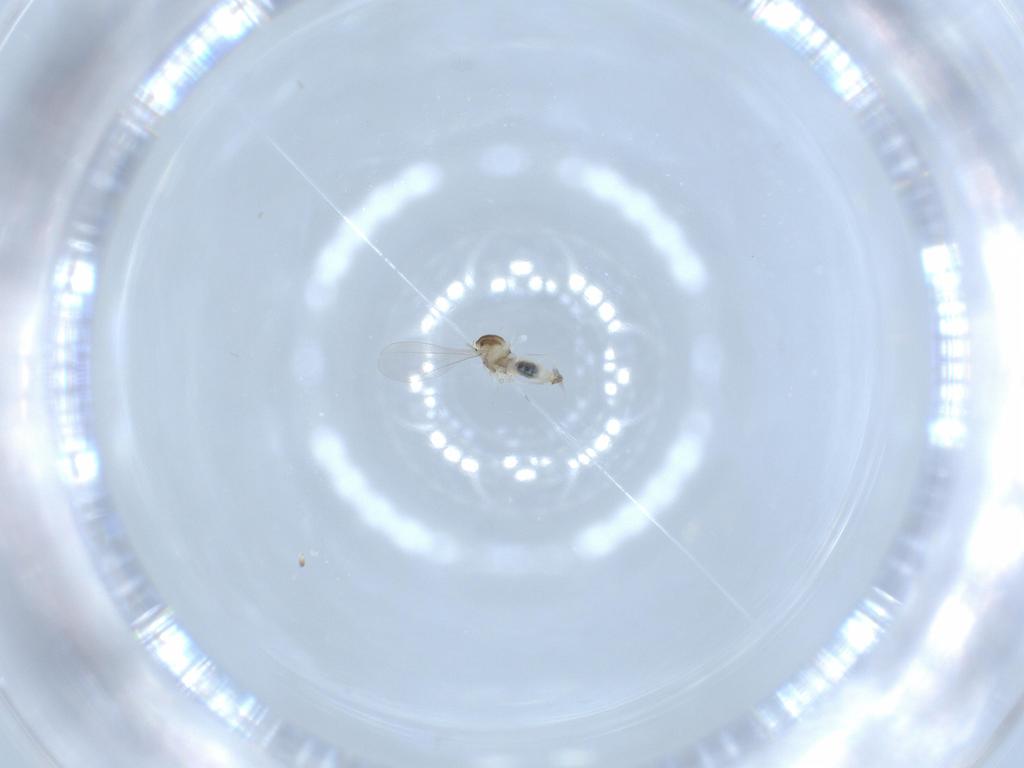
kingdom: Animalia
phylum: Arthropoda
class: Insecta
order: Diptera
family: Cecidomyiidae
